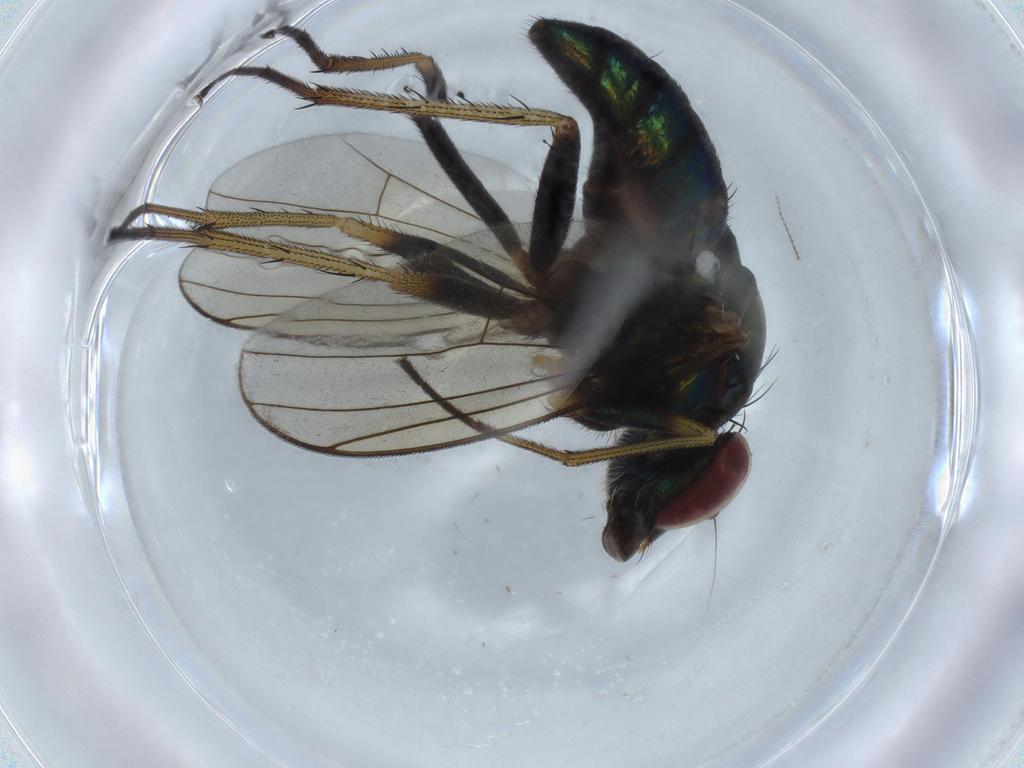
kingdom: Animalia
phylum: Arthropoda
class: Insecta
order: Diptera
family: Dolichopodidae
